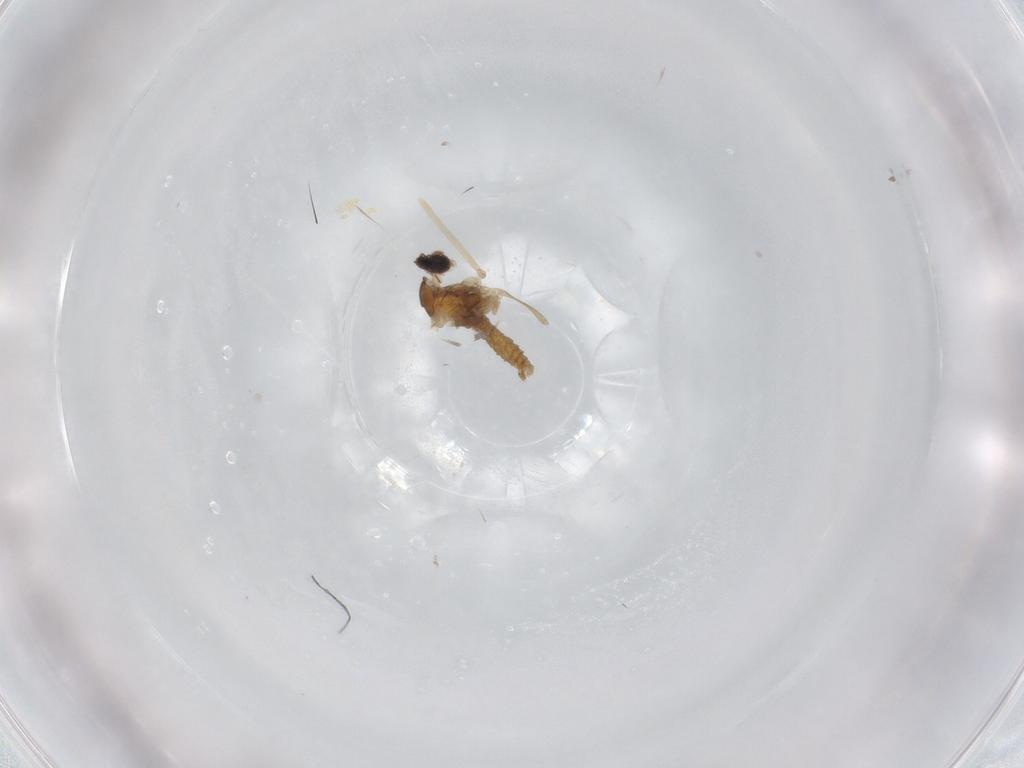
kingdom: Animalia
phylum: Arthropoda
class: Insecta
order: Diptera
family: Cecidomyiidae
